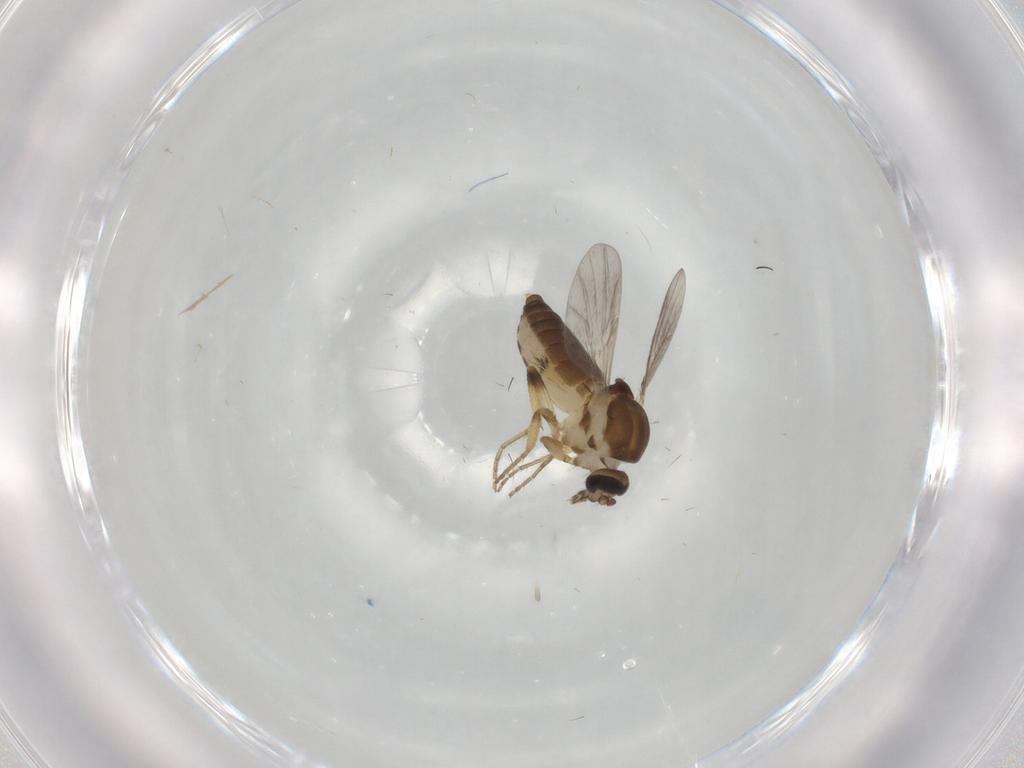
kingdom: Animalia
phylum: Arthropoda
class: Insecta
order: Diptera
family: Ceratopogonidae
